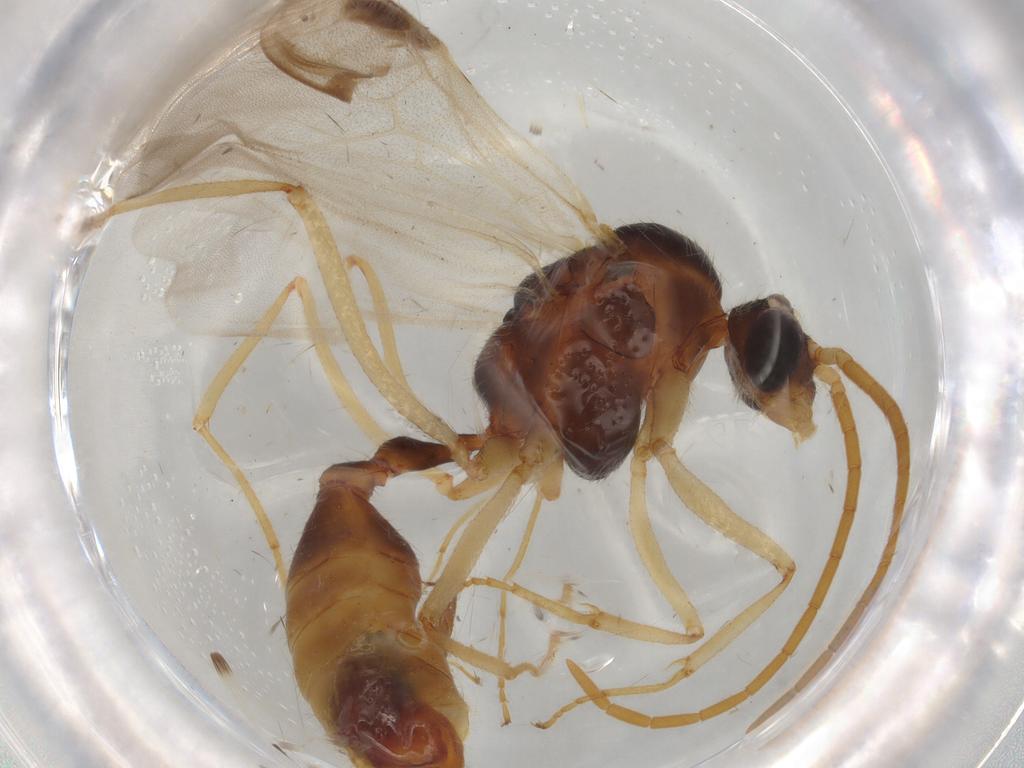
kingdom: Animalia
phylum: Arthropoda
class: Insecta
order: Hymenoptera
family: Formicidae
